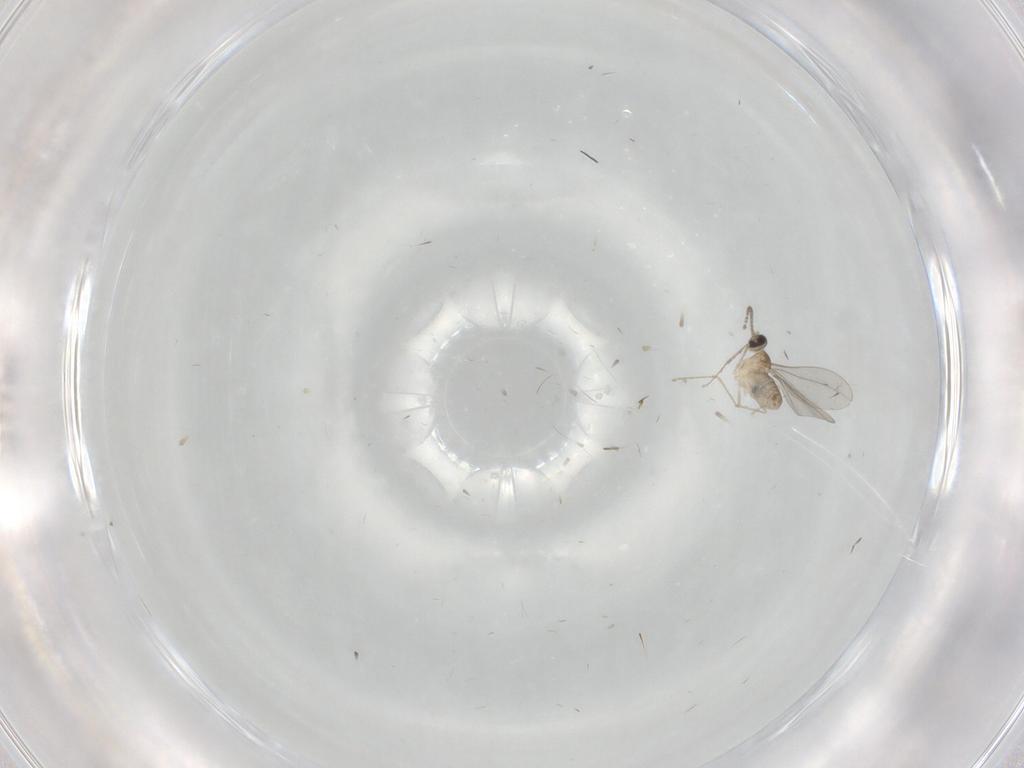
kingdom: Animalia
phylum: Arthropoda
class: Insecta
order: Diptera
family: Cecidomyiidae
